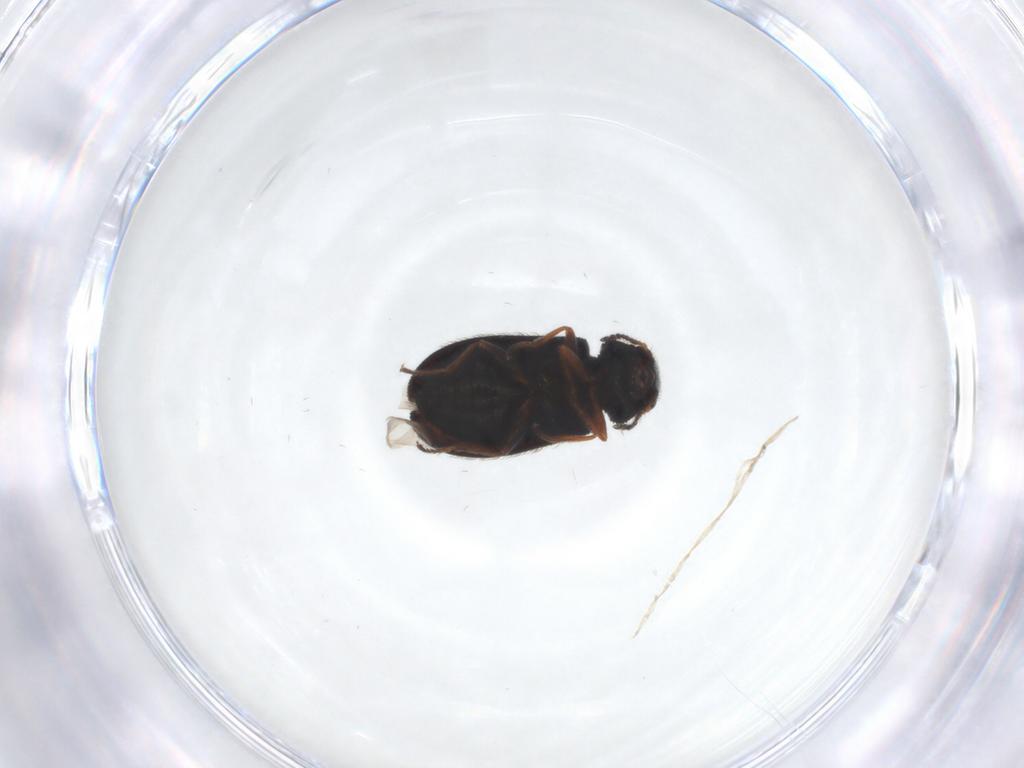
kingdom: Animalia
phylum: Arthropoda
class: Insecta
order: Coleoptera
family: Melyridae
